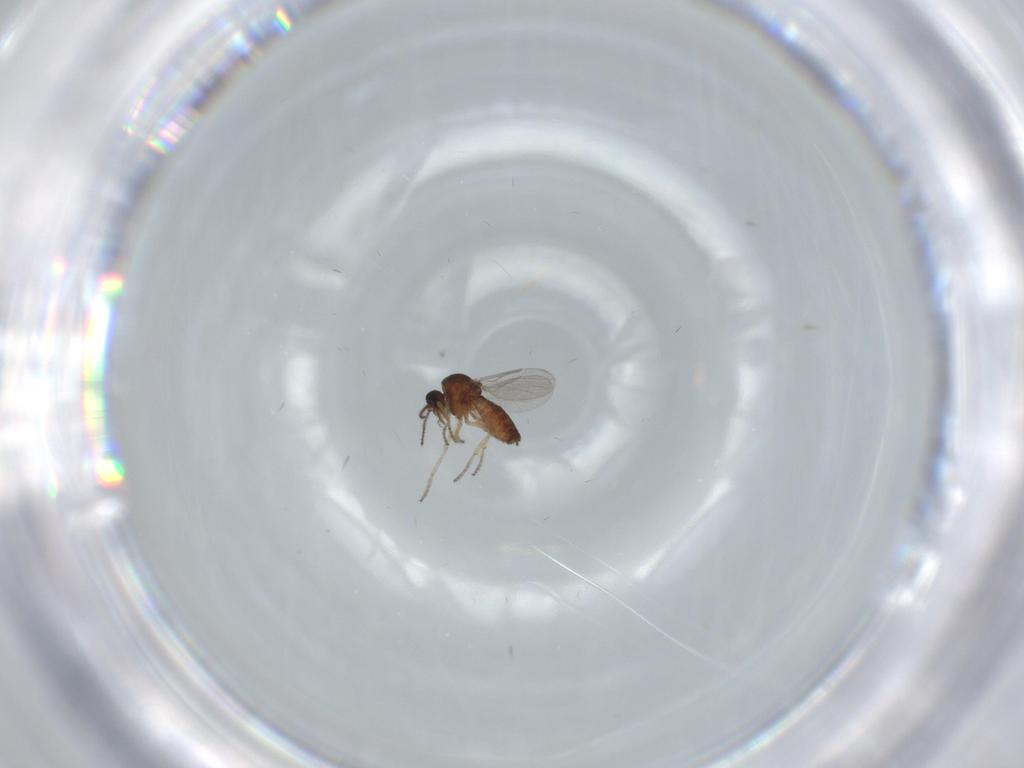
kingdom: Animalia
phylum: Arthropoda
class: Insecta
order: Diptera
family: Ceratopogonidae
